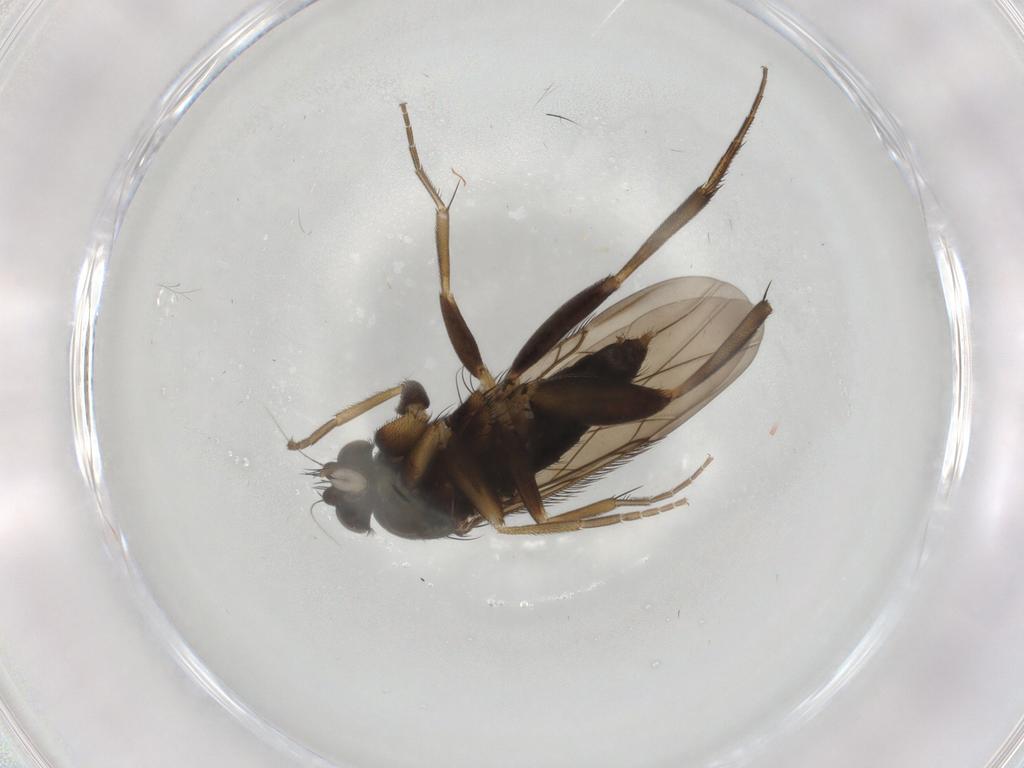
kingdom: Animalia
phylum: Arthropoda
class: Insecta
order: Diptera
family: Phoridae
